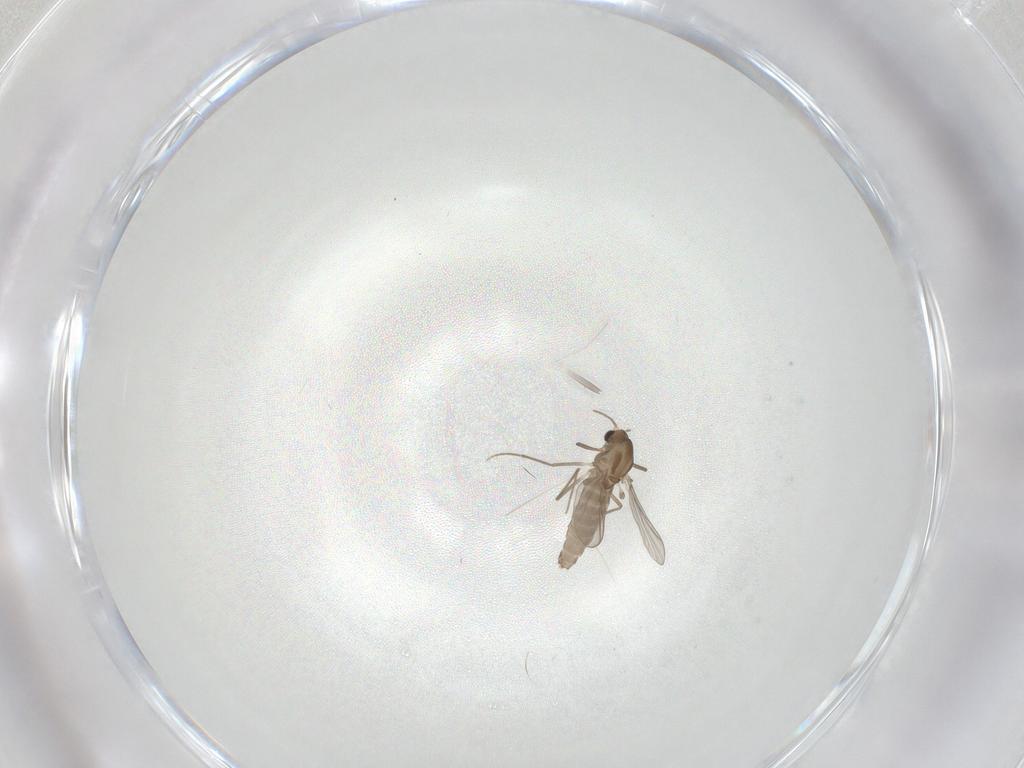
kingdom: Animalia
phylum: Arthropoda
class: Insecta
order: Diptera
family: Chironomidae
